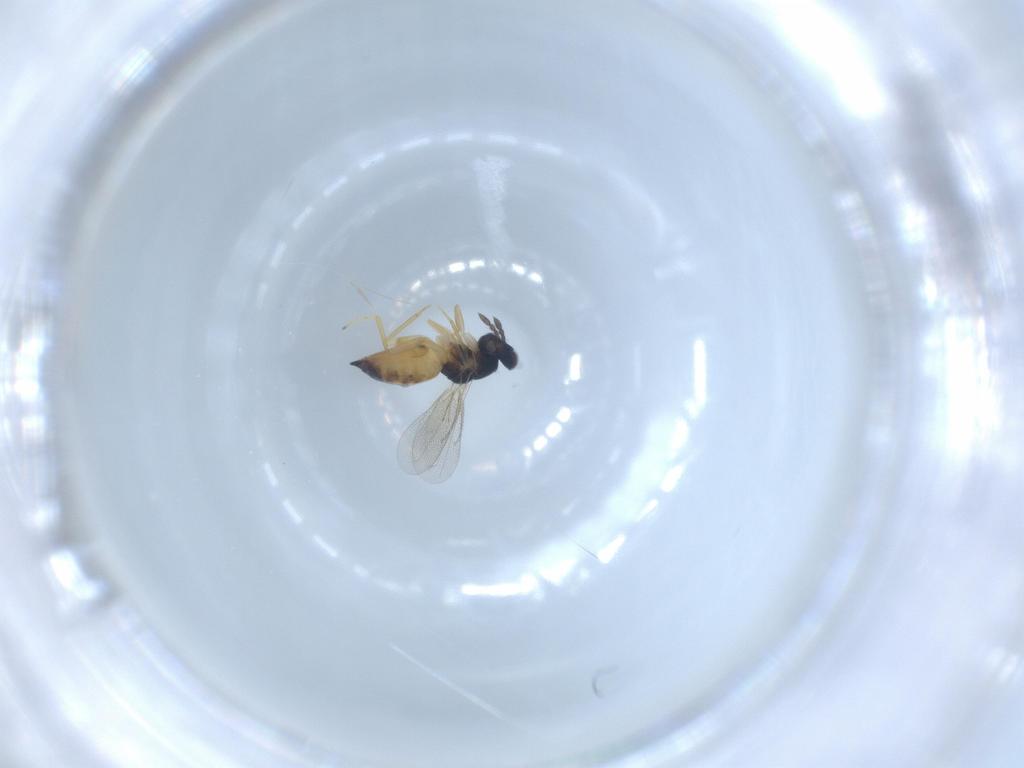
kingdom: Animalia
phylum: Arthropoda
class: Insecta
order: Hymenoptera
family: Eulophidae
